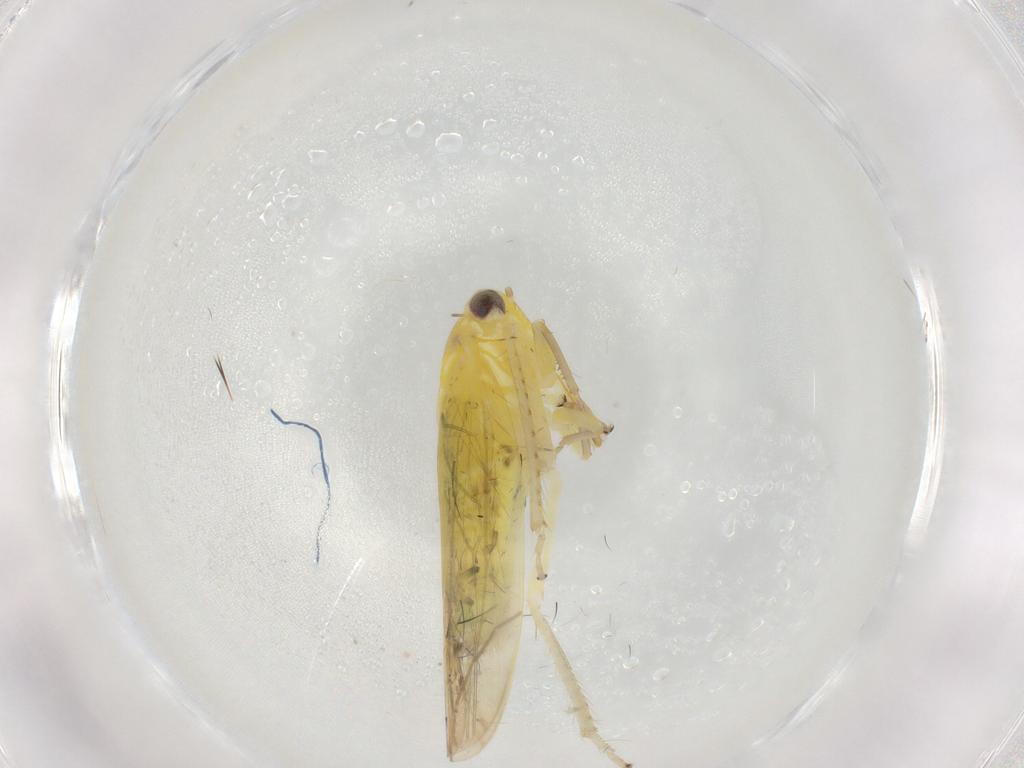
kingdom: Animalia
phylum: Arthropoda
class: Insecta
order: Hemiptera
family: Cicadellidae
